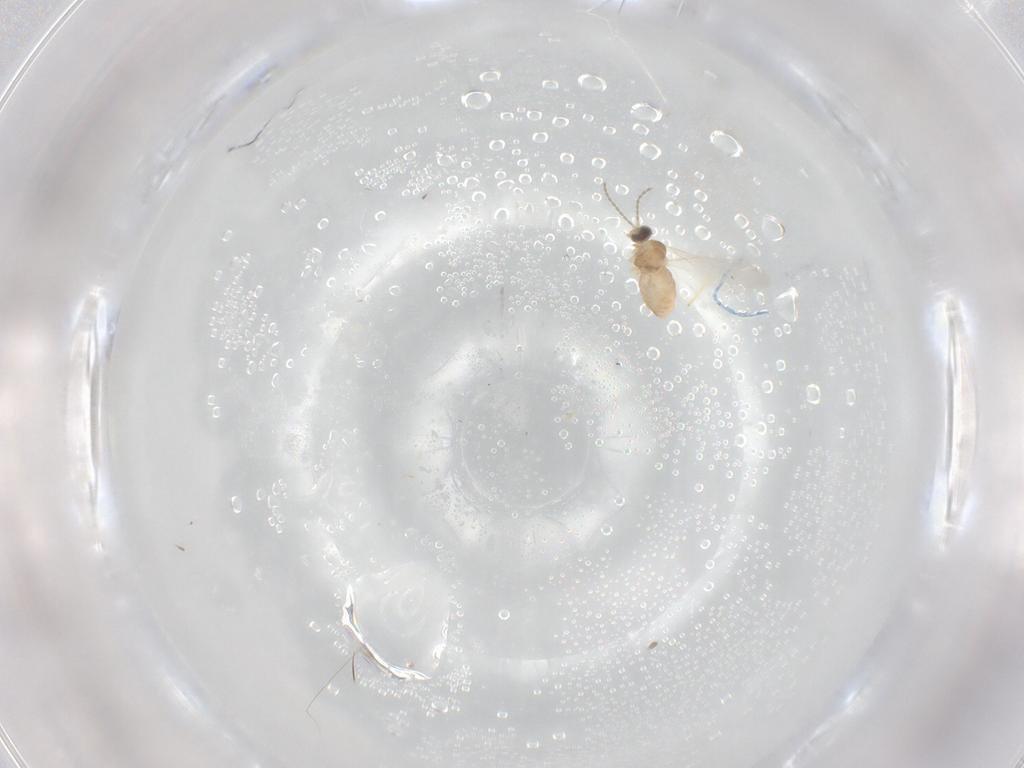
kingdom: Animalia
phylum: Arthropoda
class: Insecta
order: Diptera
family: Cecidomyiidae
